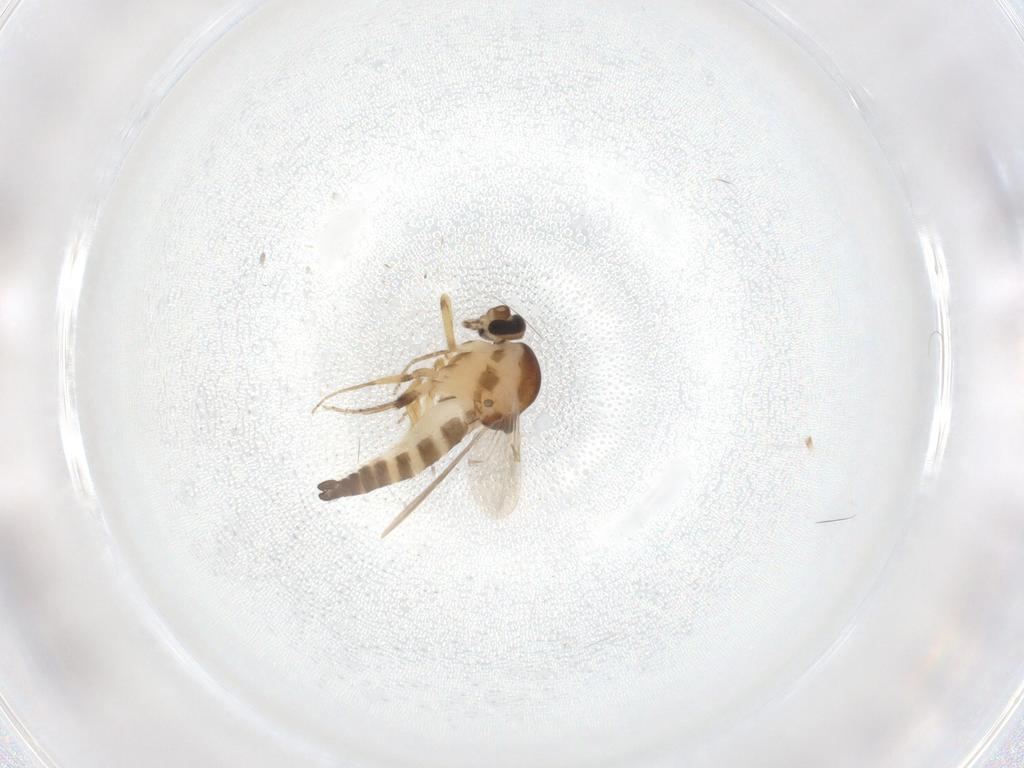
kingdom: Animalia
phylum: Arthropoda
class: Insecta
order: Diptera
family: Ceratopogonidae
